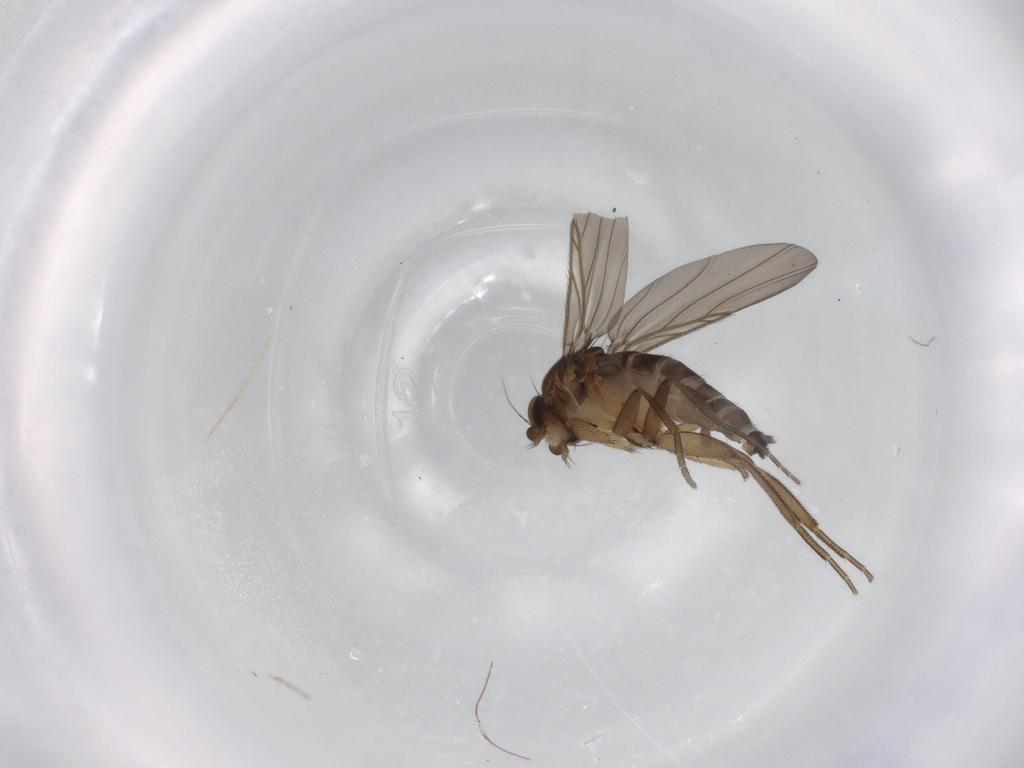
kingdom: Animalia
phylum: Arthropoda
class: Insecta
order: Diptera
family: Phoridae
